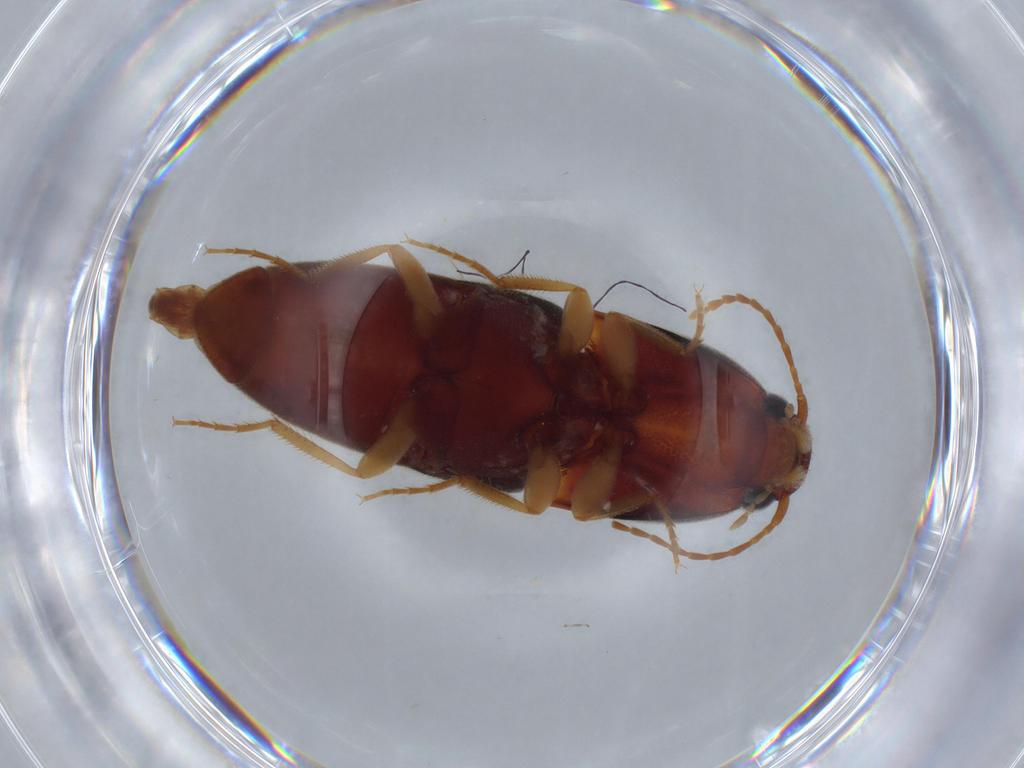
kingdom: Animalia
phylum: Arthropoda
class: Insecta
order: Coleoptera
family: Elateridae
